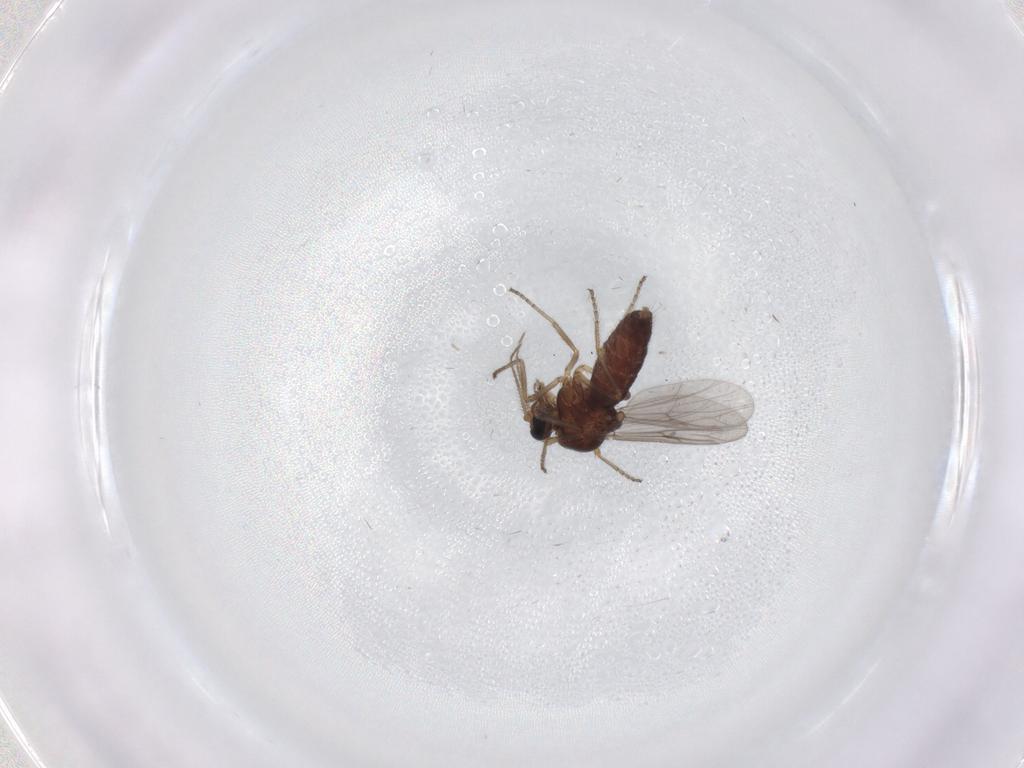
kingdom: Animalia
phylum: Arthropoda
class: Insecta
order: Diptera
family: Ceratopogonidae
